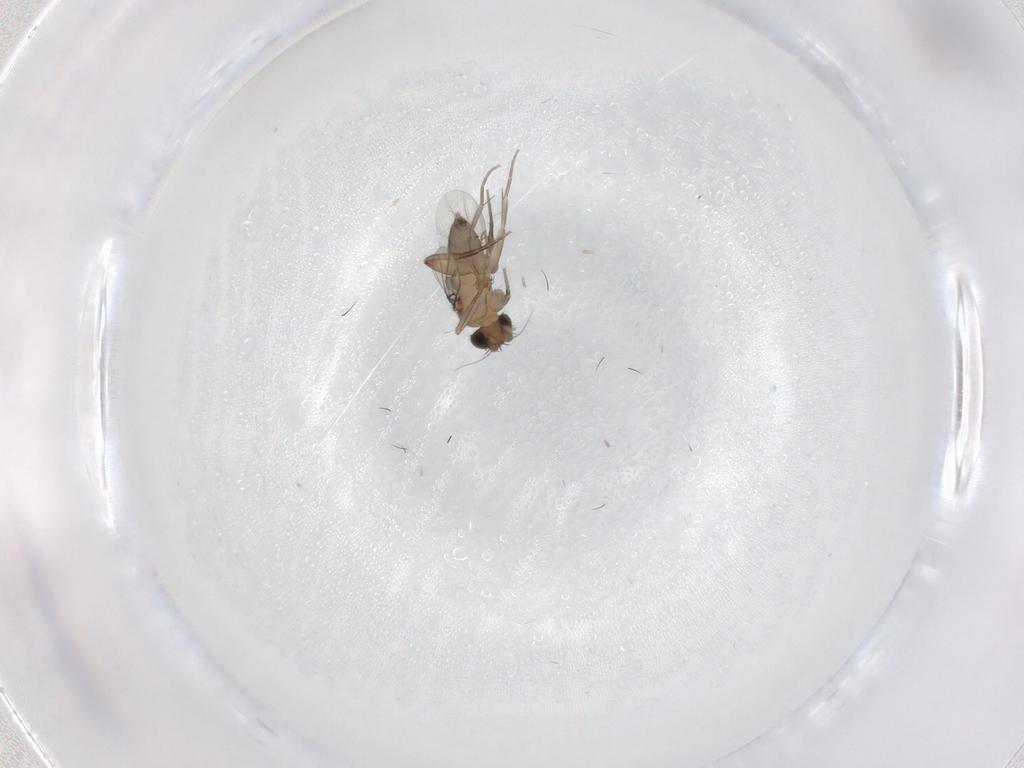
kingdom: Animalia
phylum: Arthropoda
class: Insecta
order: Diptera
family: Phoridae
